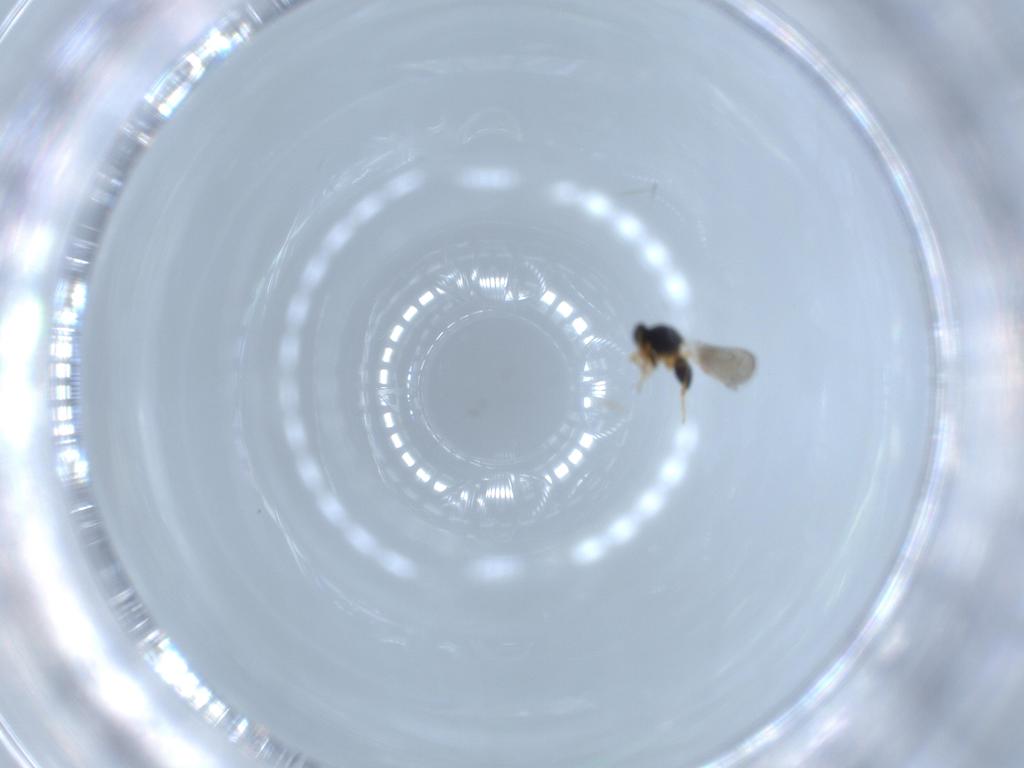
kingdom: Animalia
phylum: Arthropoda
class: Insecta
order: Hymenoptera
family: Platygastridae
